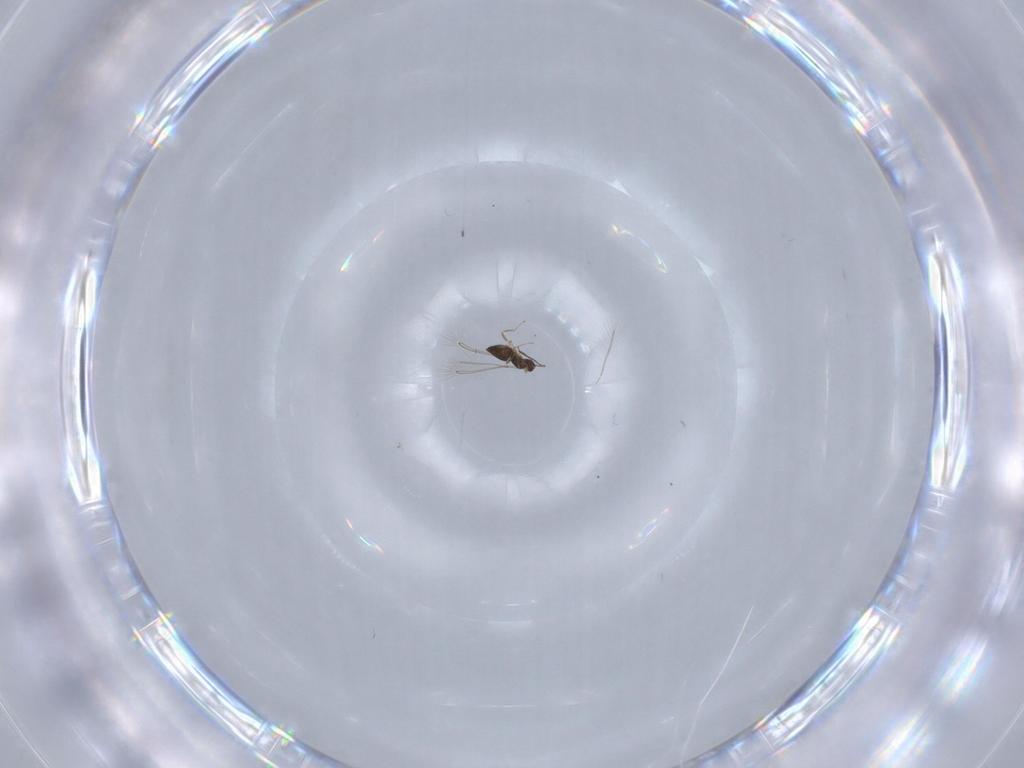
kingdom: Animalia
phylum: Arthropoda
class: Insecta
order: Hymenoptera
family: Mymaridae
